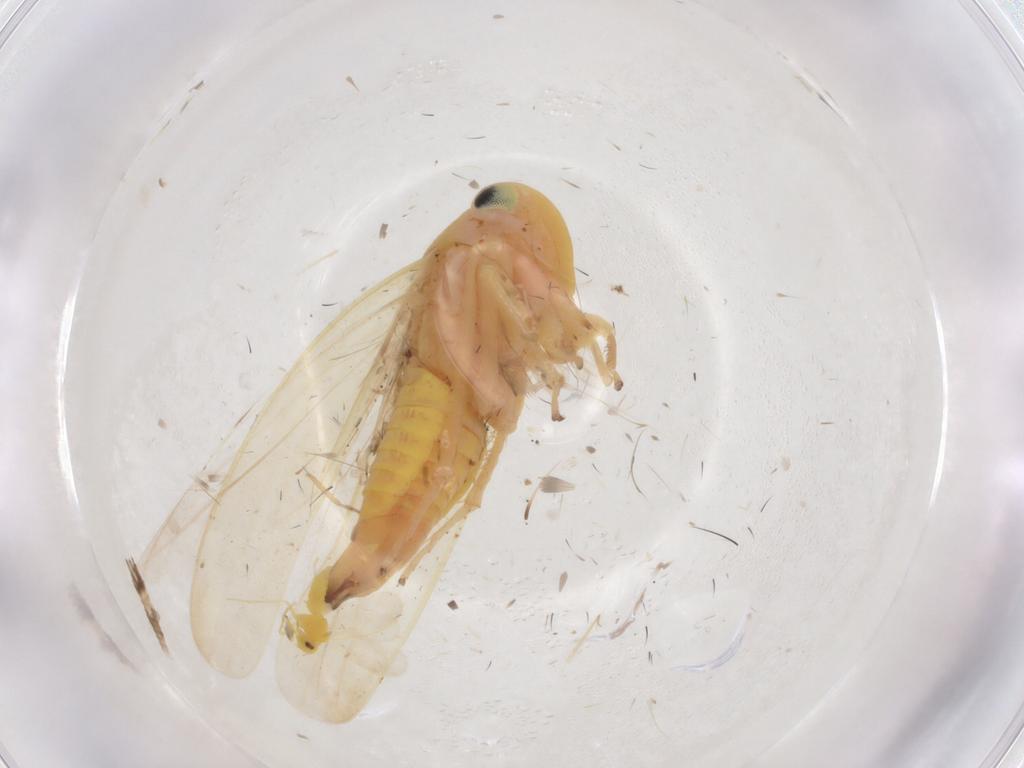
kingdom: Animalia
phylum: Arthropoda
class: Insecta
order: Hemiptera
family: Cicadellidae
